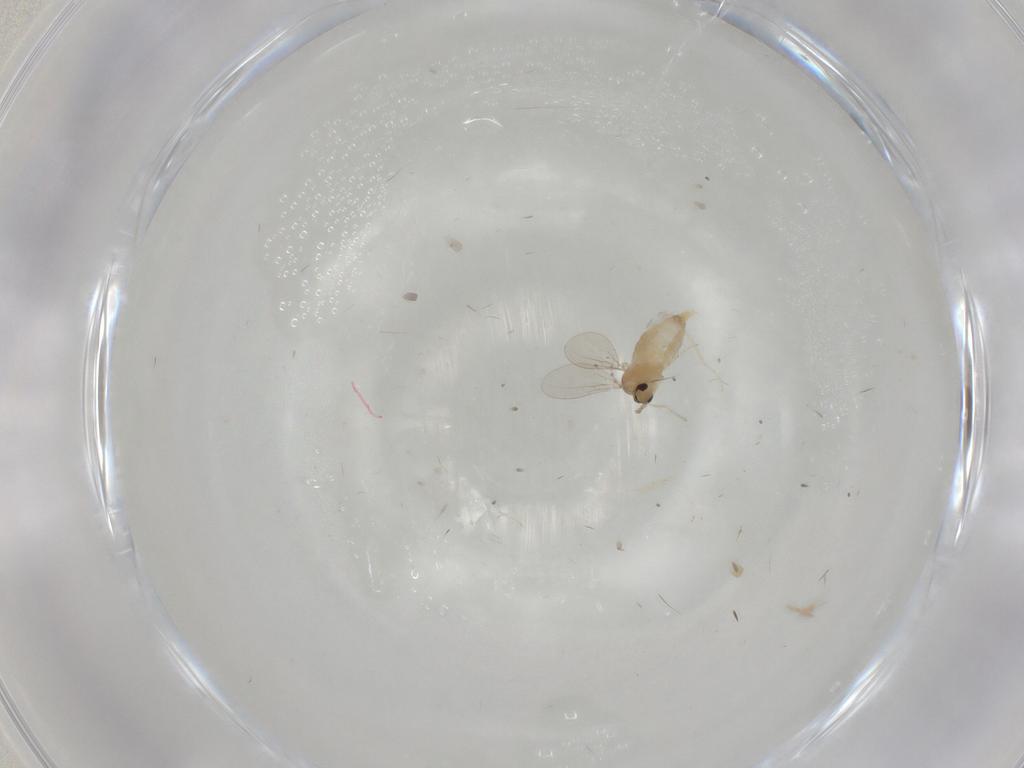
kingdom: Animalia
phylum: Arthropoda
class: Insecta
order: Diptera
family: Cecidomyiidae
